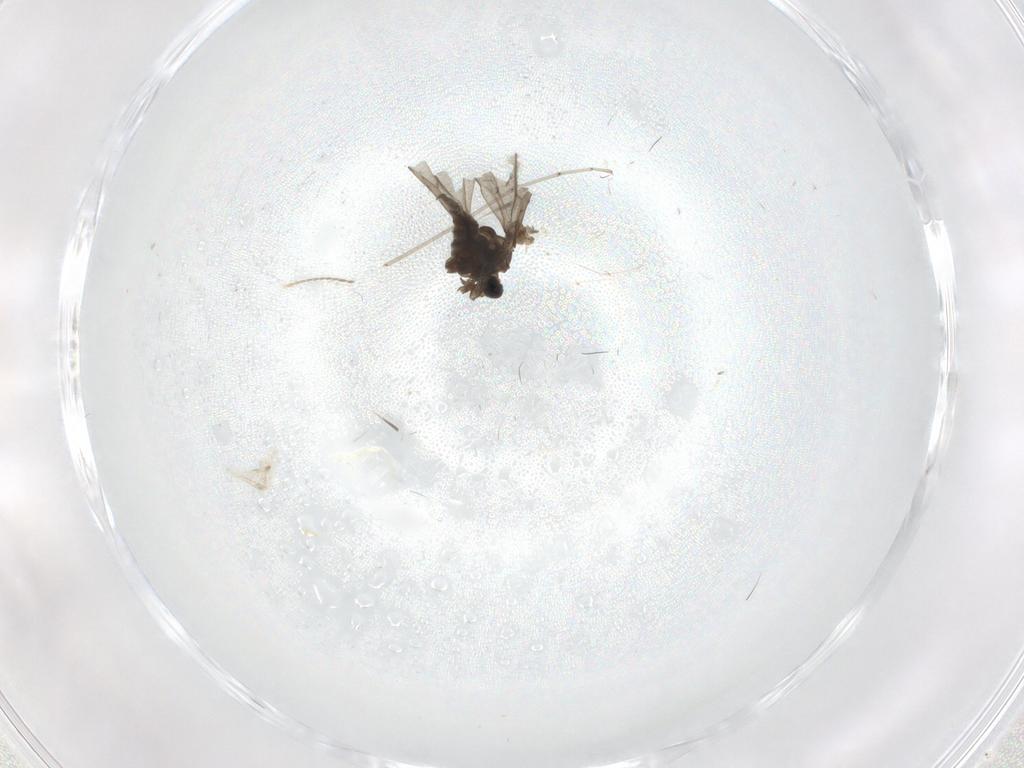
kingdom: Animalia
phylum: Arthropoda
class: Insecta
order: Diptera
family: Psychodidae
